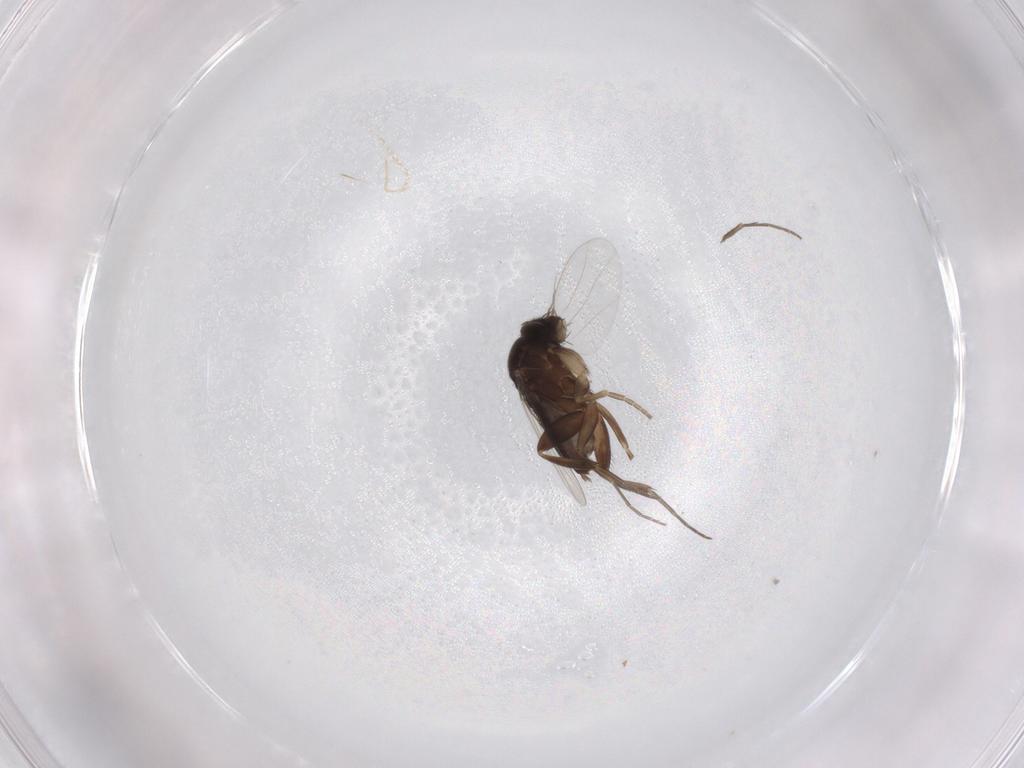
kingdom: Animalia
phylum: Arthropoda
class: Insecta
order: Diptera
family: Phoridae
